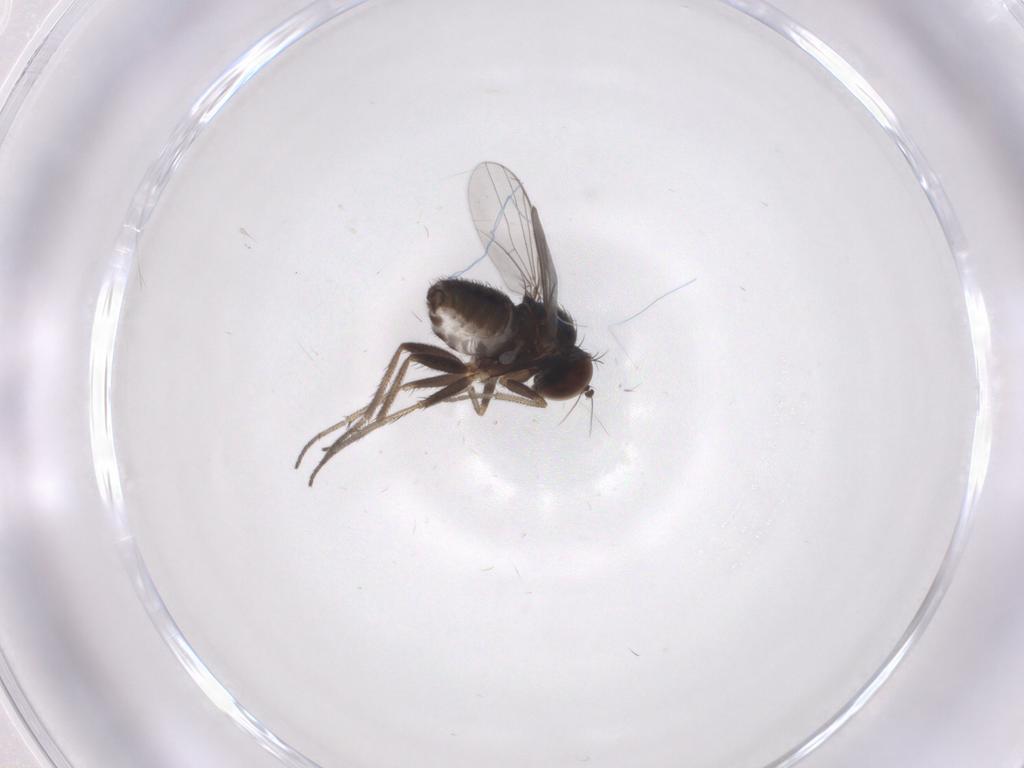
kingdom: Animalia
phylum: Arthropoda
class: Insecta
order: Diptera
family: Dolichopodidae
